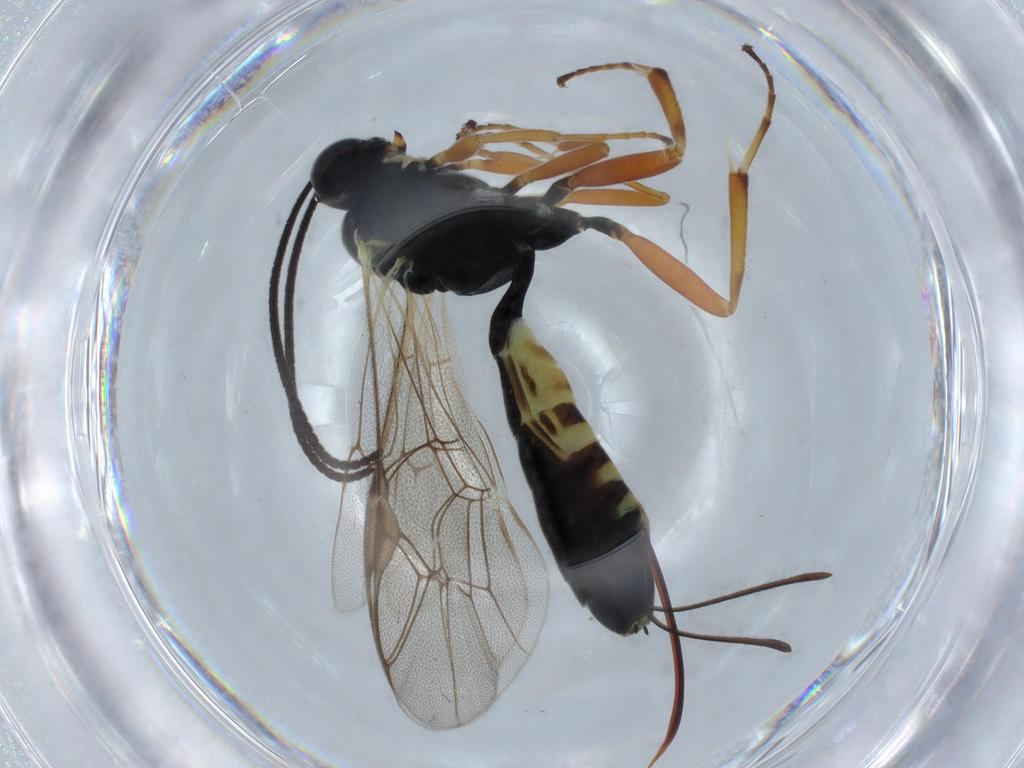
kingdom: Animalia
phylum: Arthropoda
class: Insecta
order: Hymenoptera
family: Ichneumonidae
